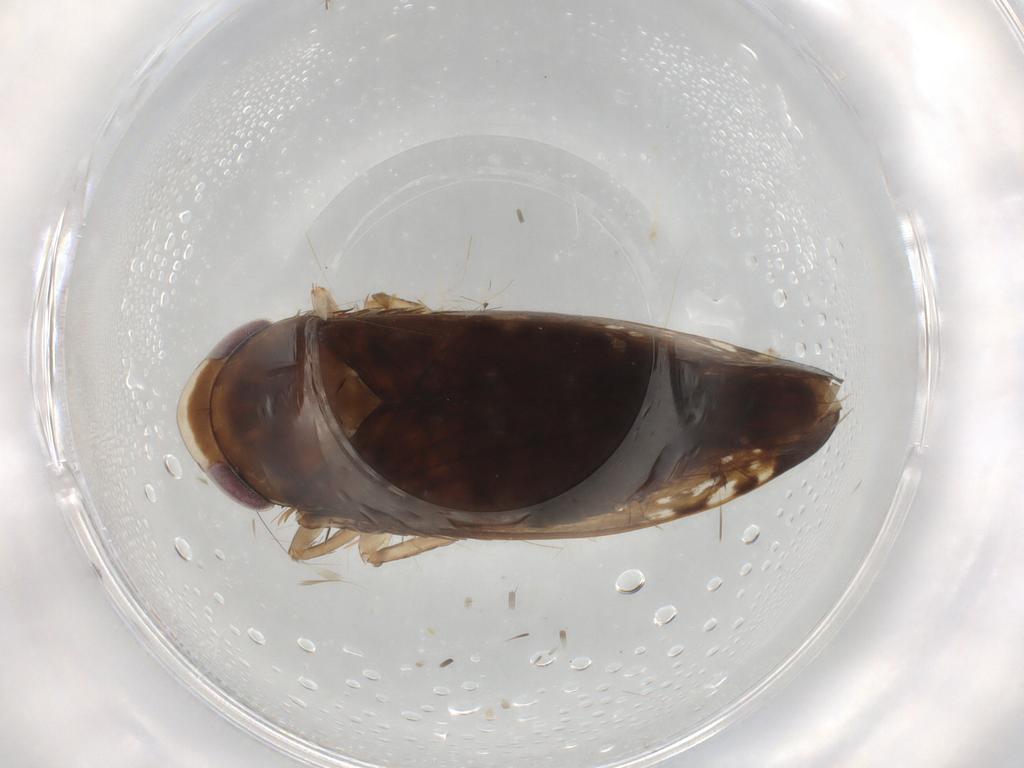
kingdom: Animalia
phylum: Arthropoda
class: Insecta
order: Hemiptera
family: Cicadellidae
